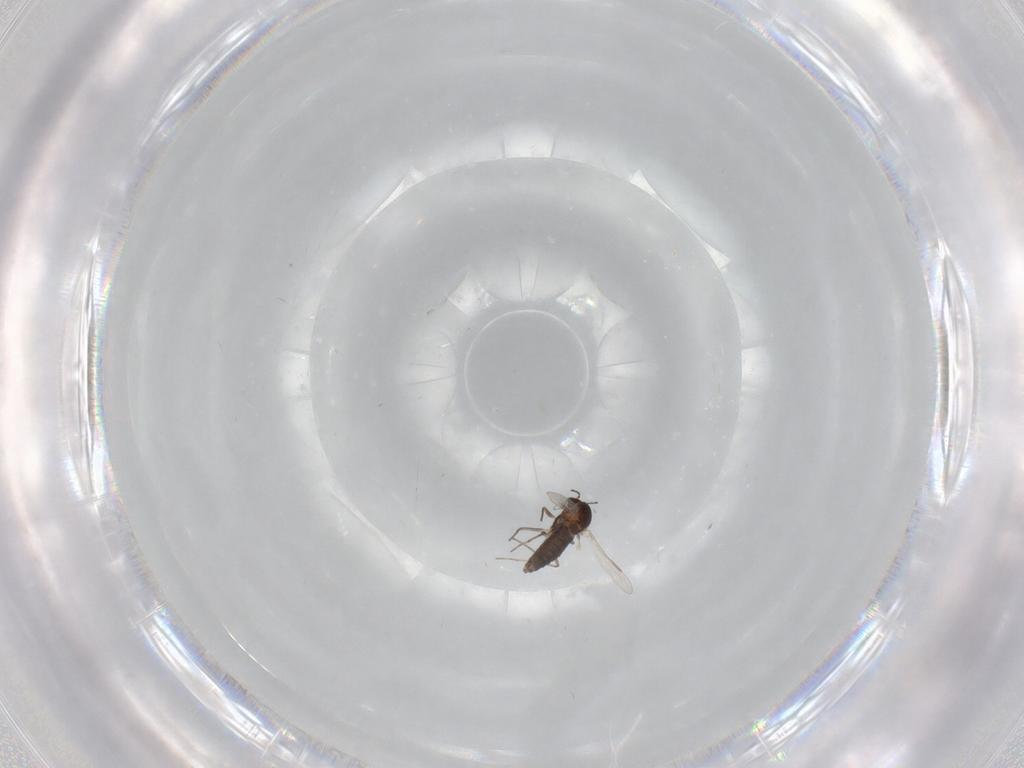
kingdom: Animalia
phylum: Arthropoda
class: Insecta
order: Diptera
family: Chironomidae
